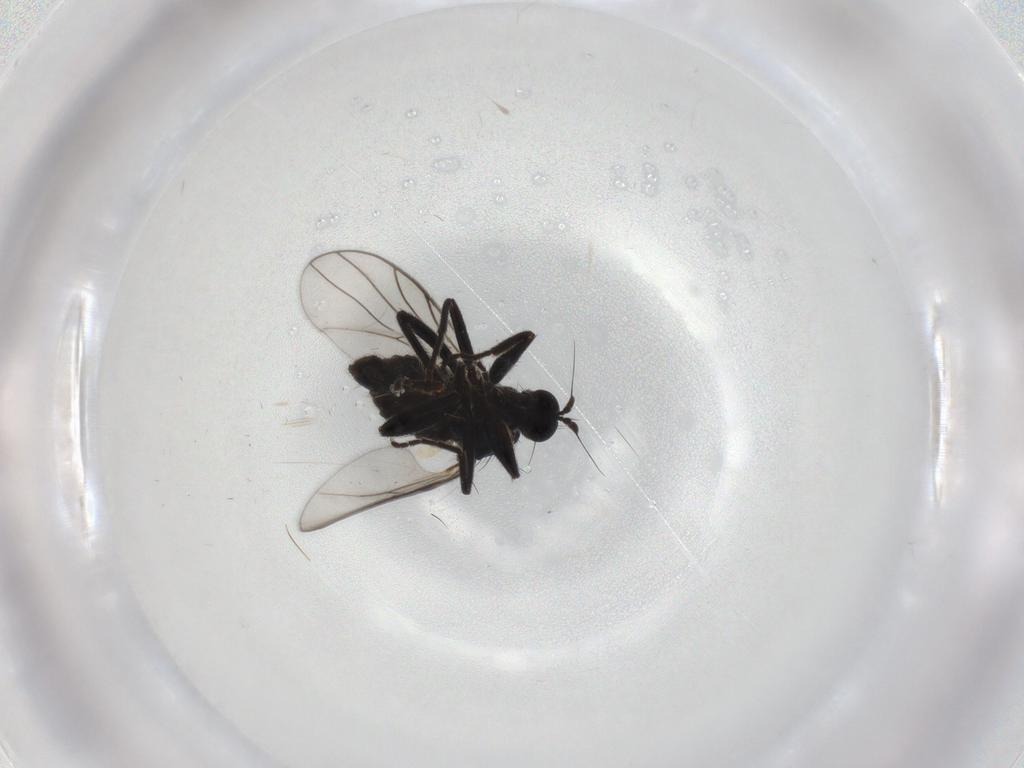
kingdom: Animalia
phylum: Arthropoda
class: Insecta
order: Diptera
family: Hybotidae
